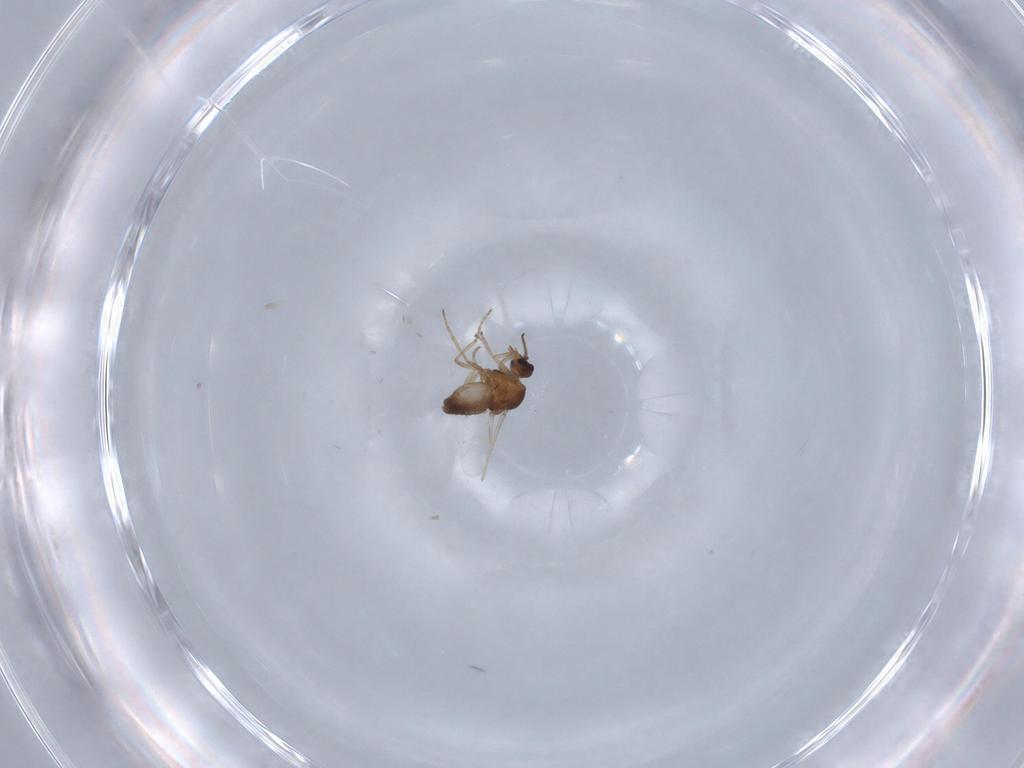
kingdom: Animalia
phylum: Arthropoda
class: Insecta
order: Diptera
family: Ceratopogonidae
